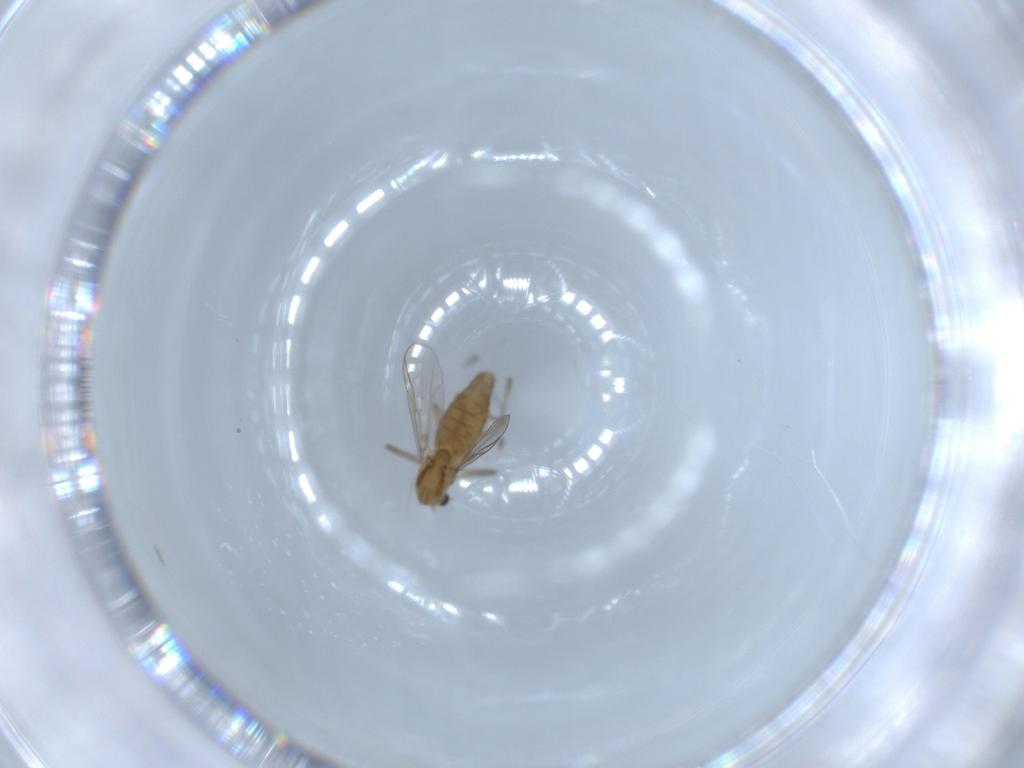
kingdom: Animalia
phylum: Arthropoda
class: Insecta
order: Diptera
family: Chironomidae
